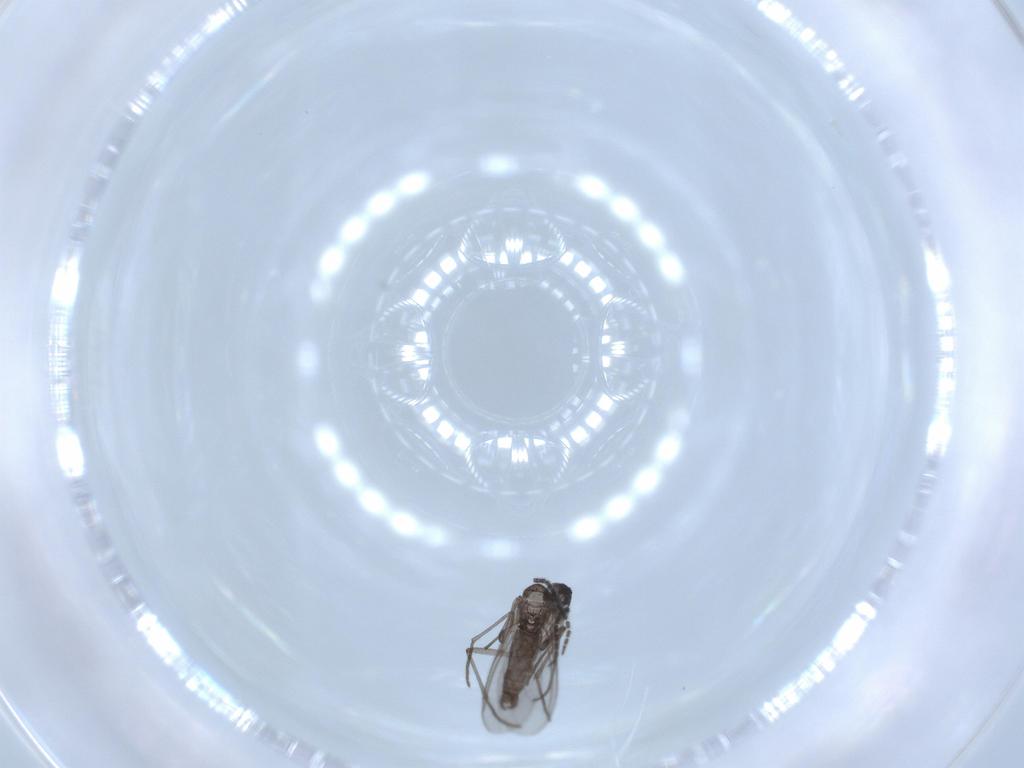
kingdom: Animalia
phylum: Arthropoda
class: Insecta
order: Diptera
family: Sciaridae
